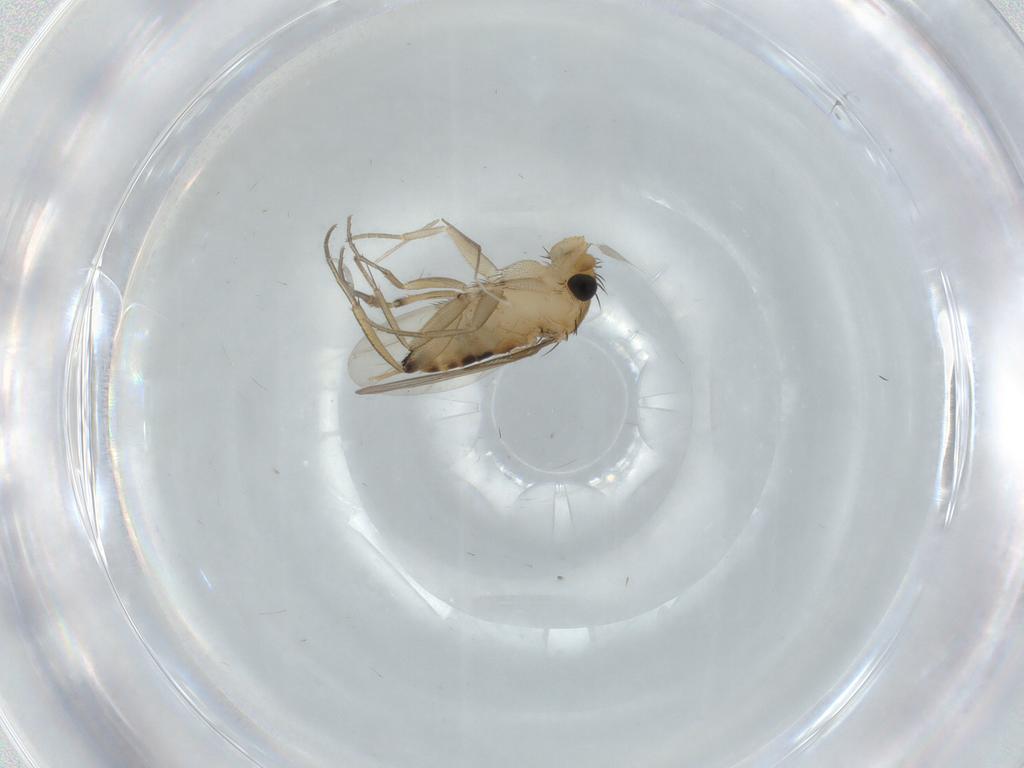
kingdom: Animalia
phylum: Arthropoda
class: Insecta
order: Diptera
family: Phoridae
